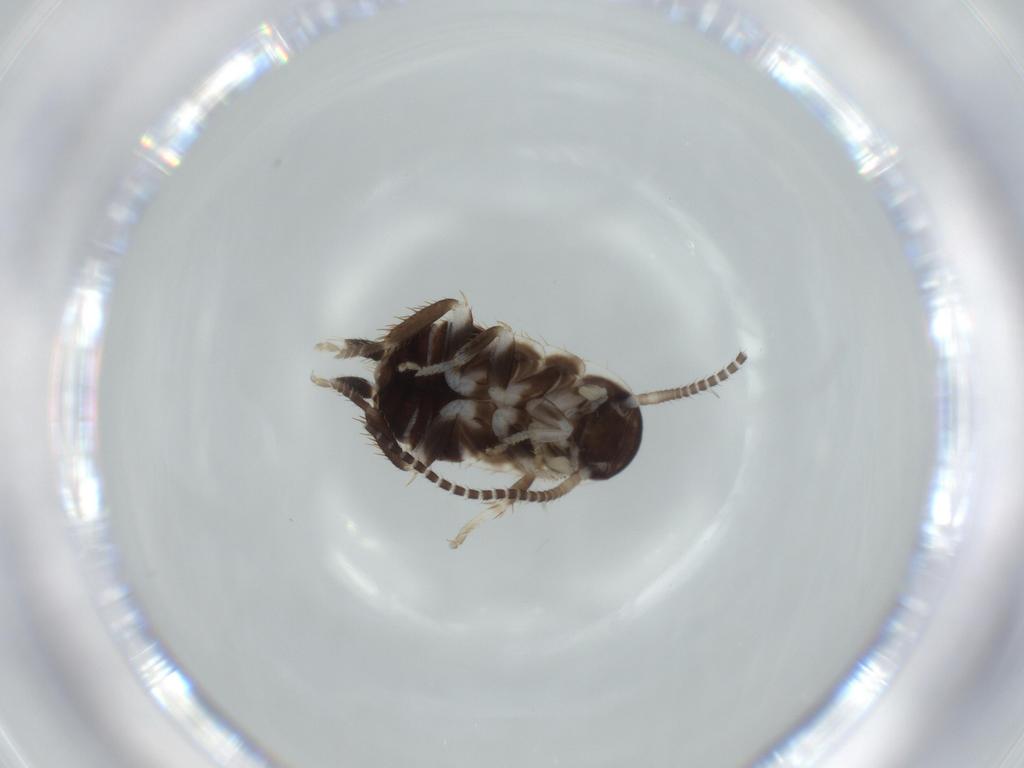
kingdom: Animalia
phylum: Arthropoda
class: Insecta
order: Blattodea
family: Ectobiidae
